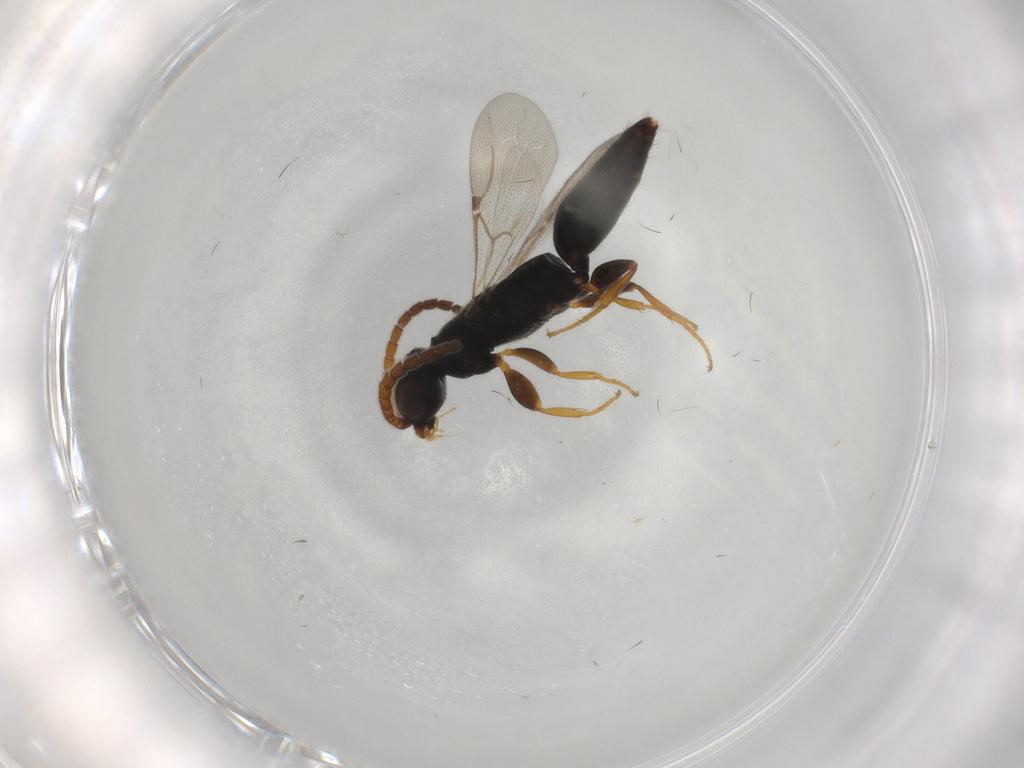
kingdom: Animalia
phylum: Arthropoda
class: Insecta
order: Hymenoptera
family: Bethylidae
